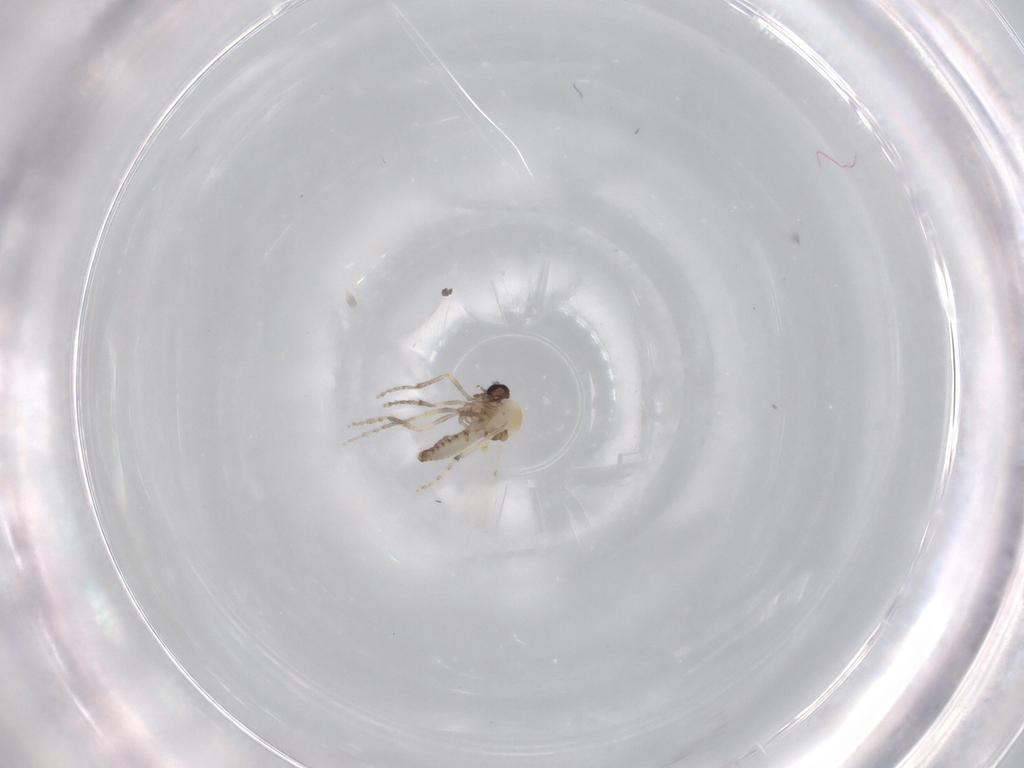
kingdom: Animalia
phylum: Arthropoda
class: Insecta
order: Diptera
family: Ceratopogonidae
